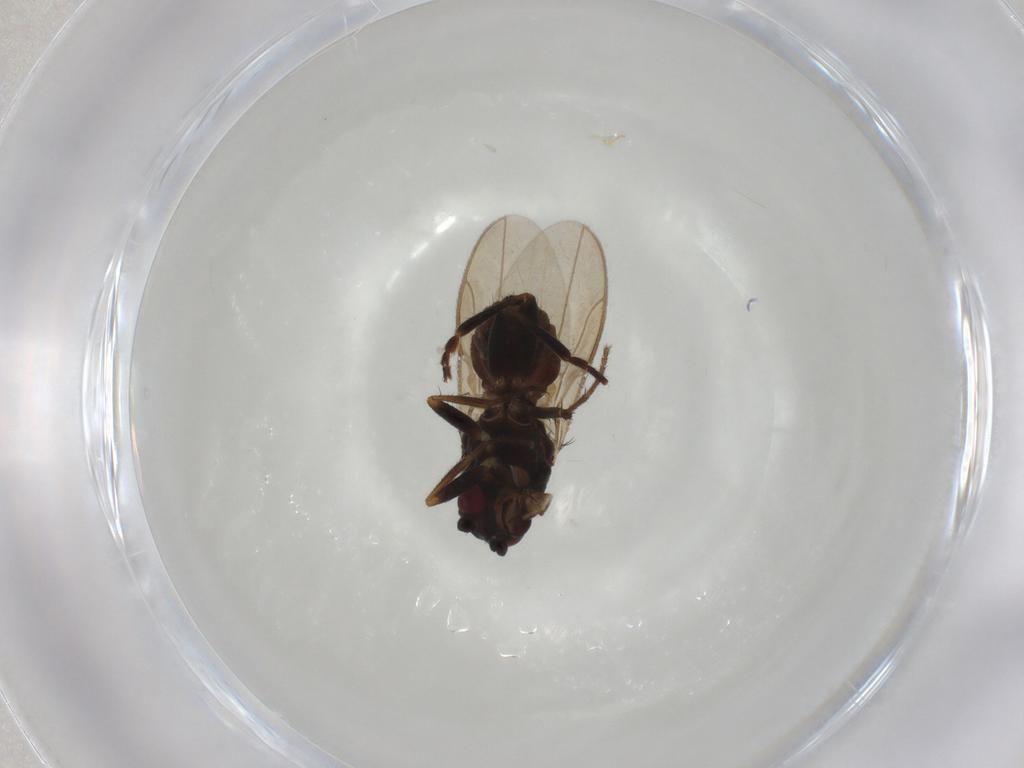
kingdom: Animalia
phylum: Arthropoda
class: Insecta
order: Diptera
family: Sphaeroceridae
